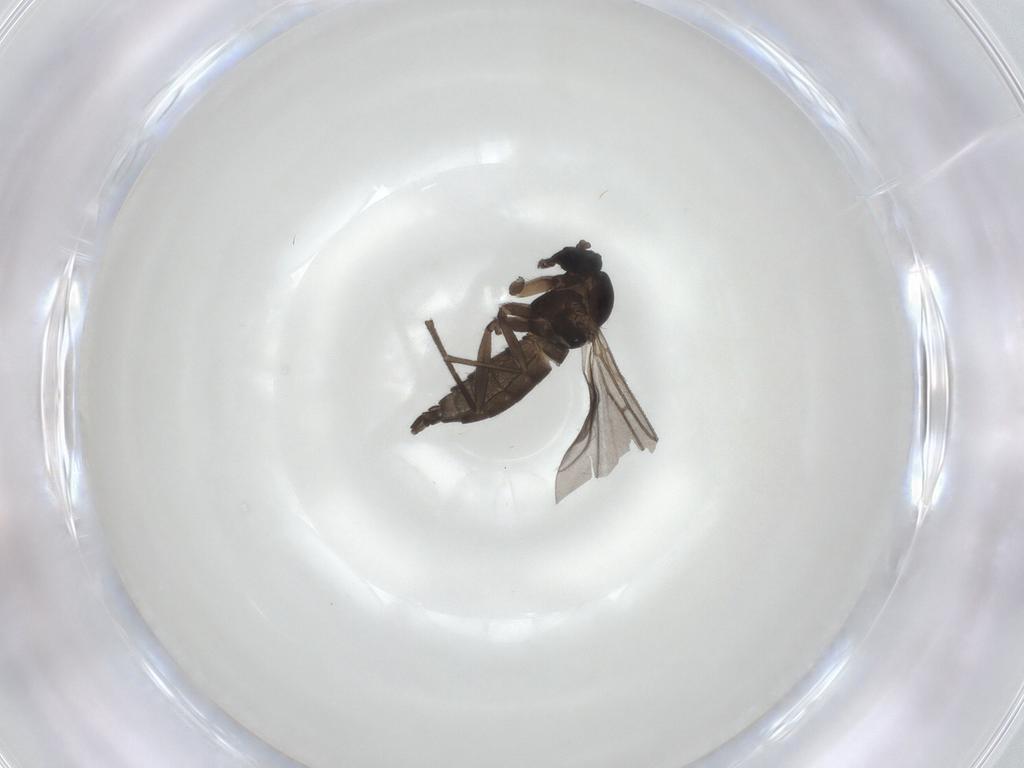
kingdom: Animalia
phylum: Arthropoda
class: Insecta
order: Diptera
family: Sciaridae
